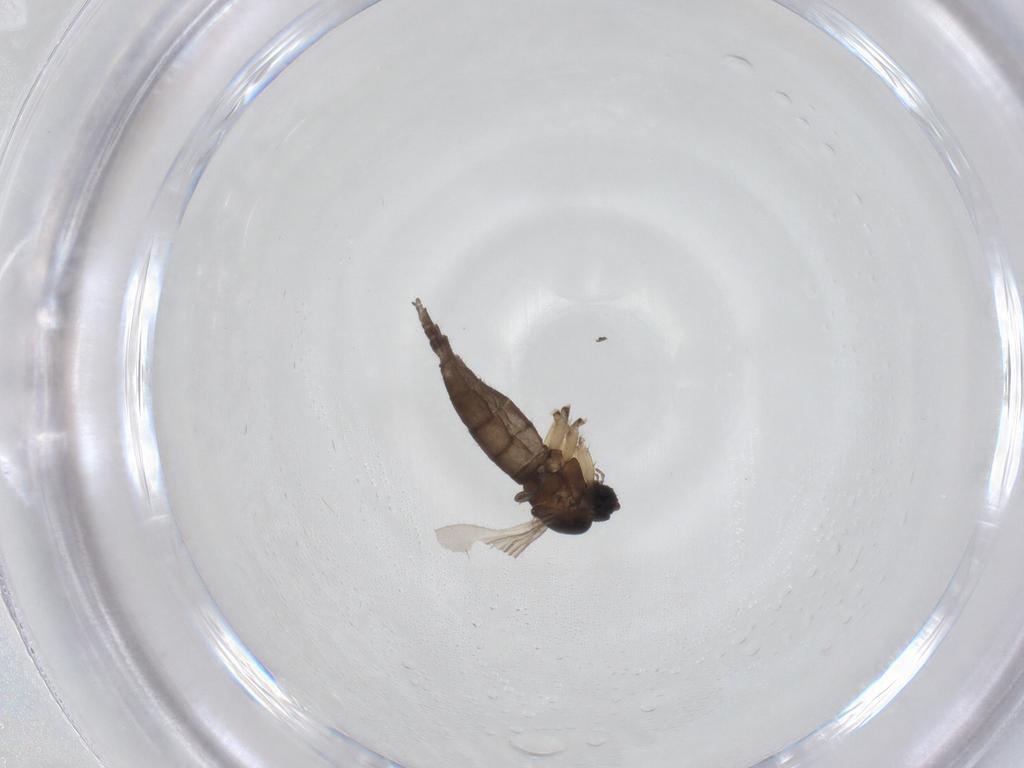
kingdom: Animalia
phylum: Arthropoda
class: Insecta
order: Diptera
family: Sciaridae
